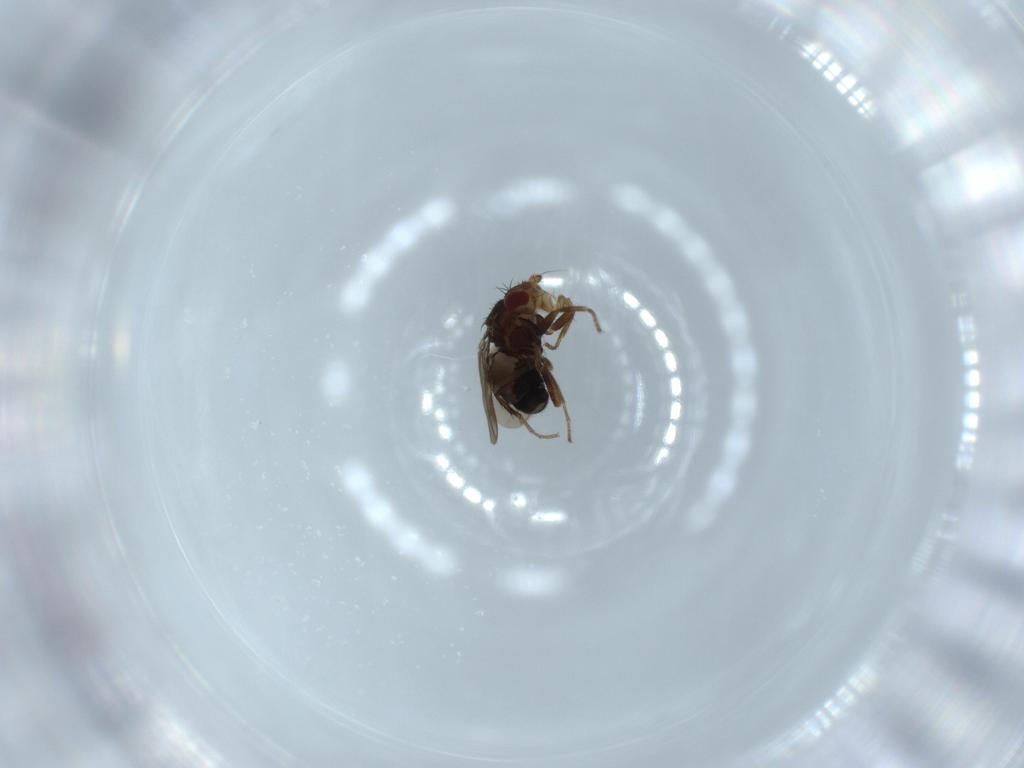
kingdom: Animalia
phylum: Arthropoda
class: Insecta
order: Diptera
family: Sphaeroceridae
